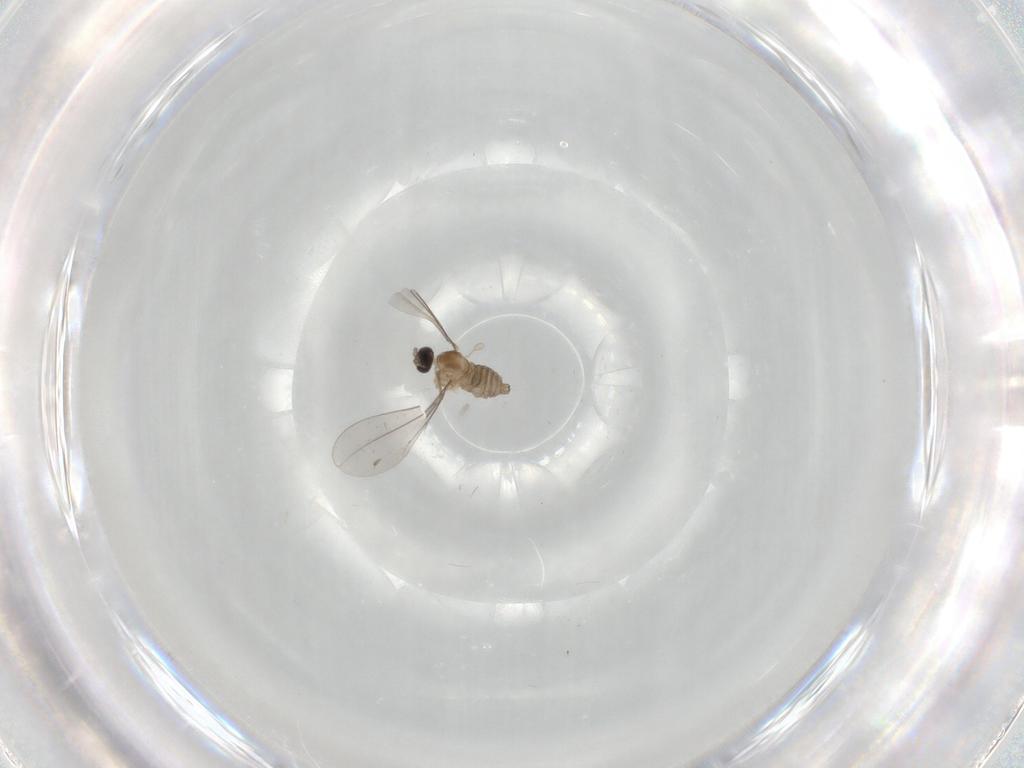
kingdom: Animalia
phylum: Arthropoda
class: Insecta
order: Diptera
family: Cecidomyiidae
